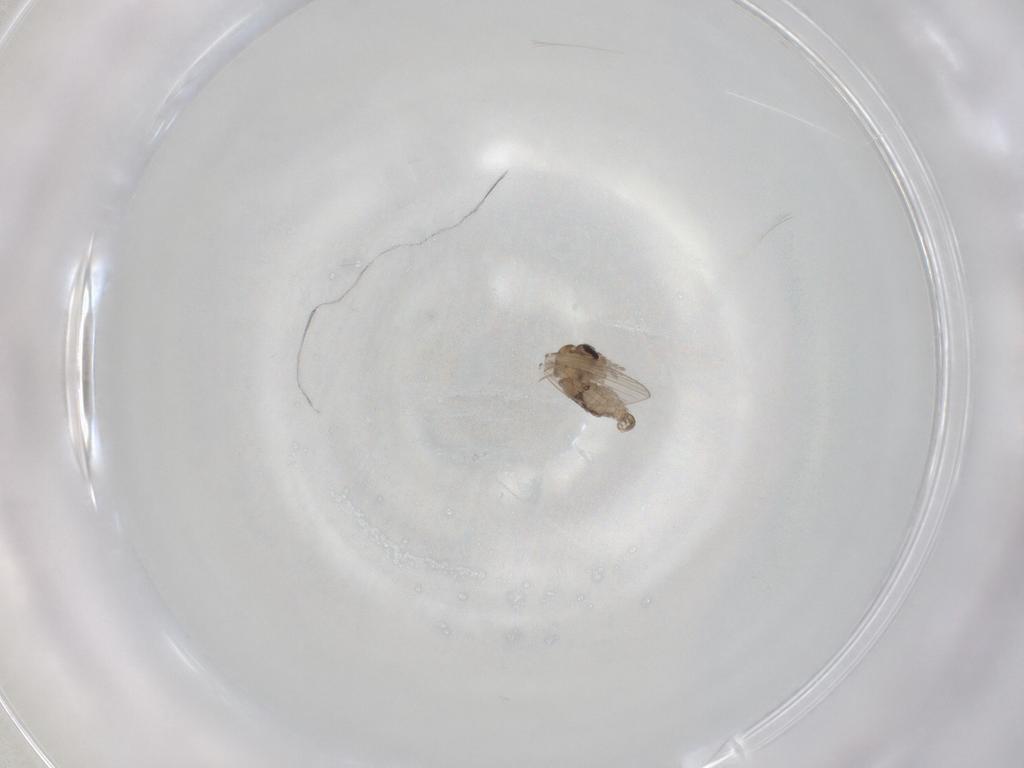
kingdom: Animalia
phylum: Arthropoda
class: Insecta
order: Diptera
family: Psychodidae
